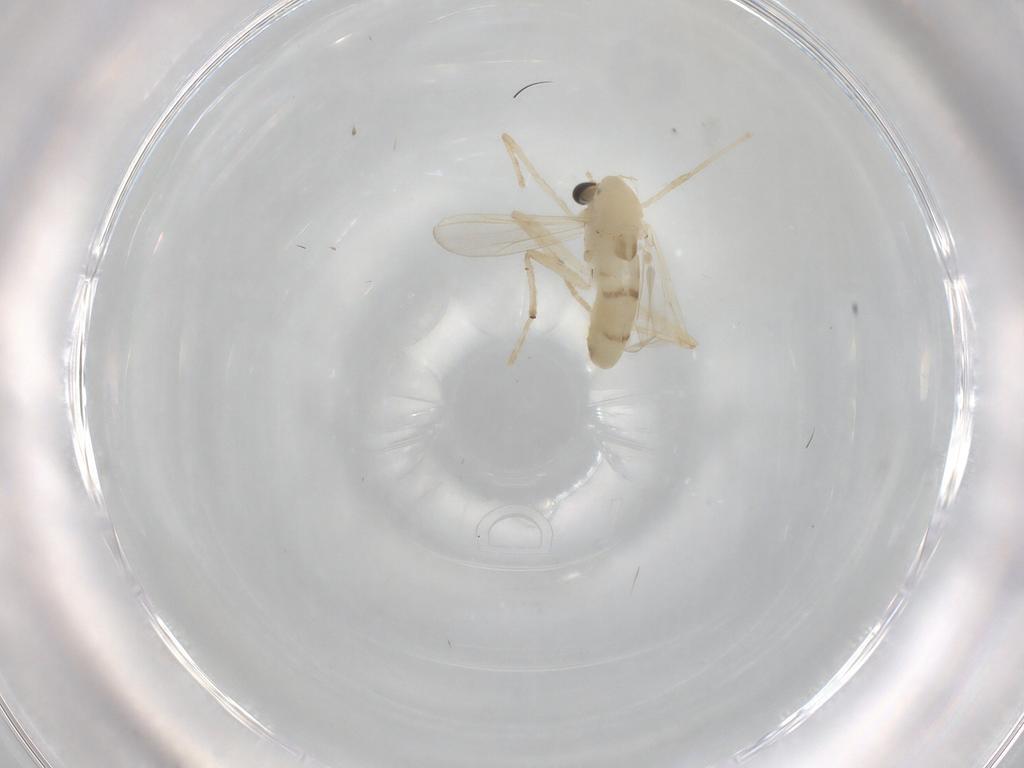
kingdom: Animalia
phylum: Arthropoda
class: Insecta
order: Diptera
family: Chironomidae
